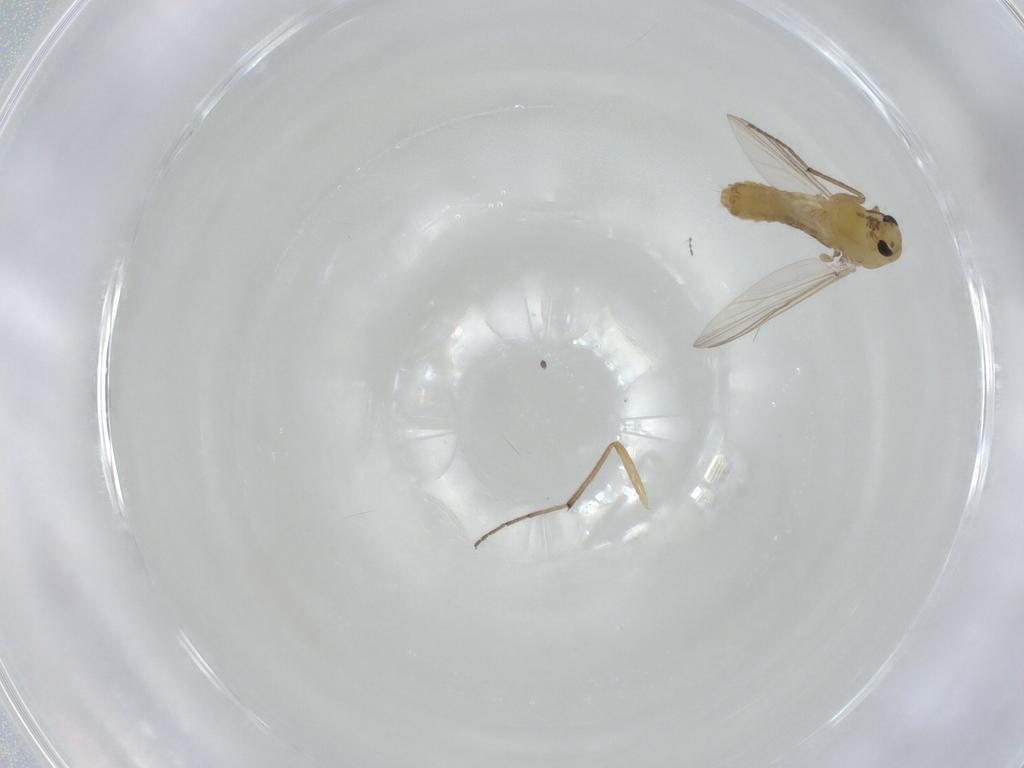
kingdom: Animalia
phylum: Arthropoda
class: Insecta
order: Diptera
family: Chironomidae
